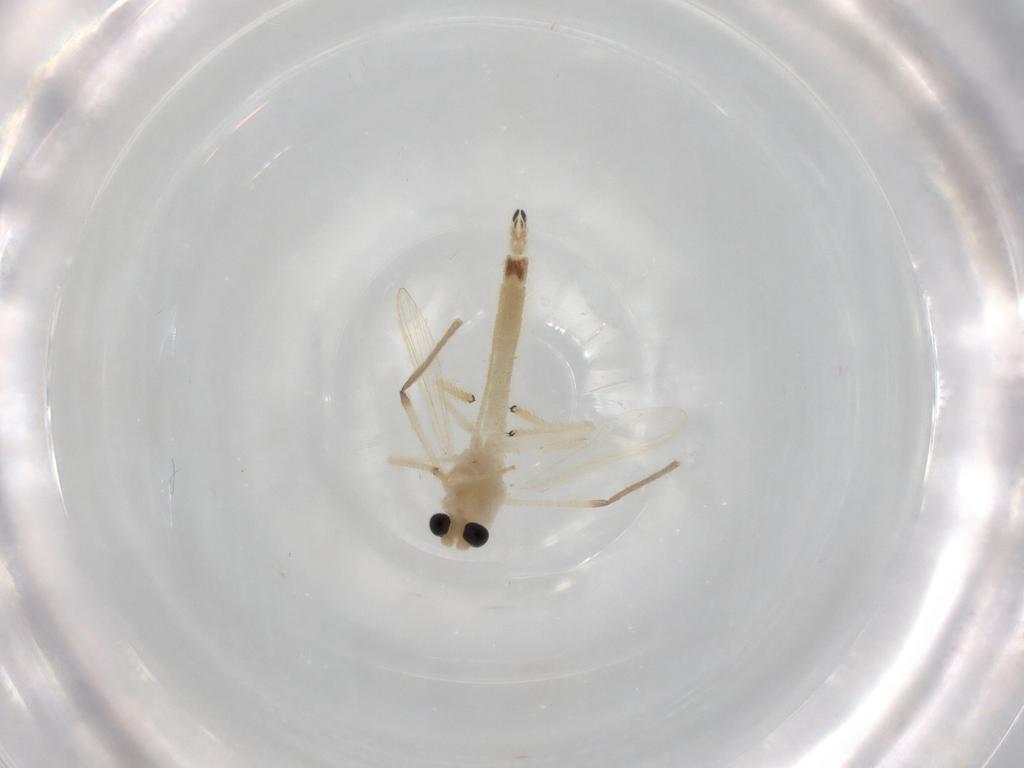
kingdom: Animalia
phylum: Arthropoda
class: Insecta
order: Diptera
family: Chironomidae
